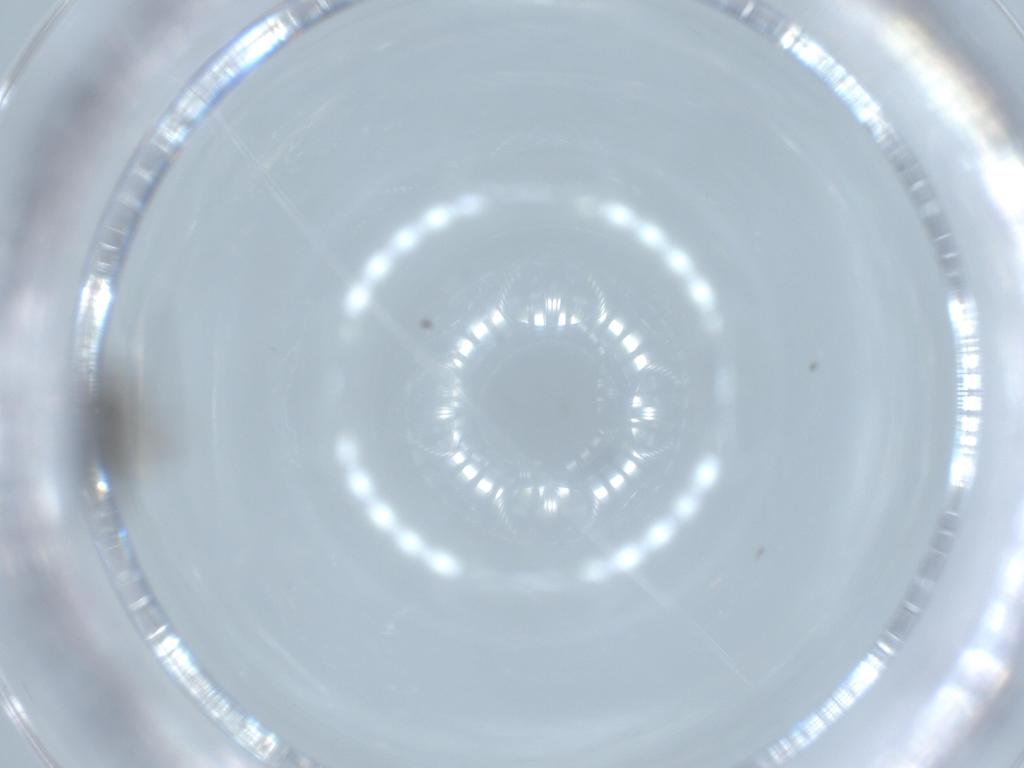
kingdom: Animalia
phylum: Arthropoda
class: Insecta
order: Diptera
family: Sciaridae
